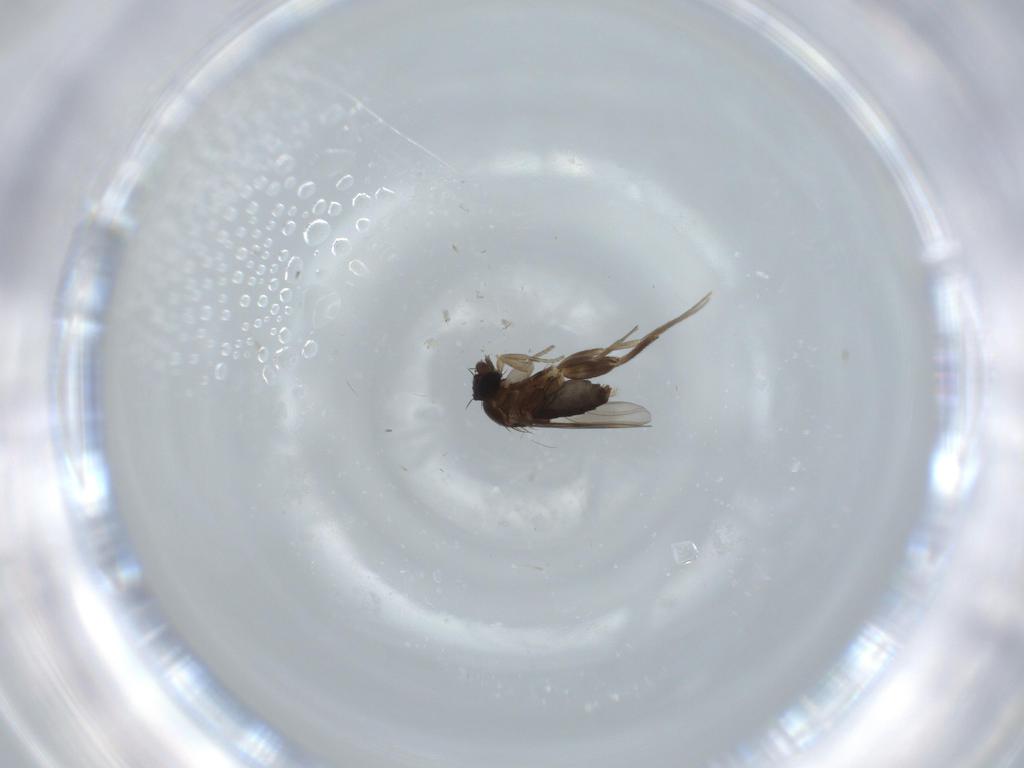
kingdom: Animalia
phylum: Arthropoda
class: Insecta
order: Diptera
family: Phoridae
